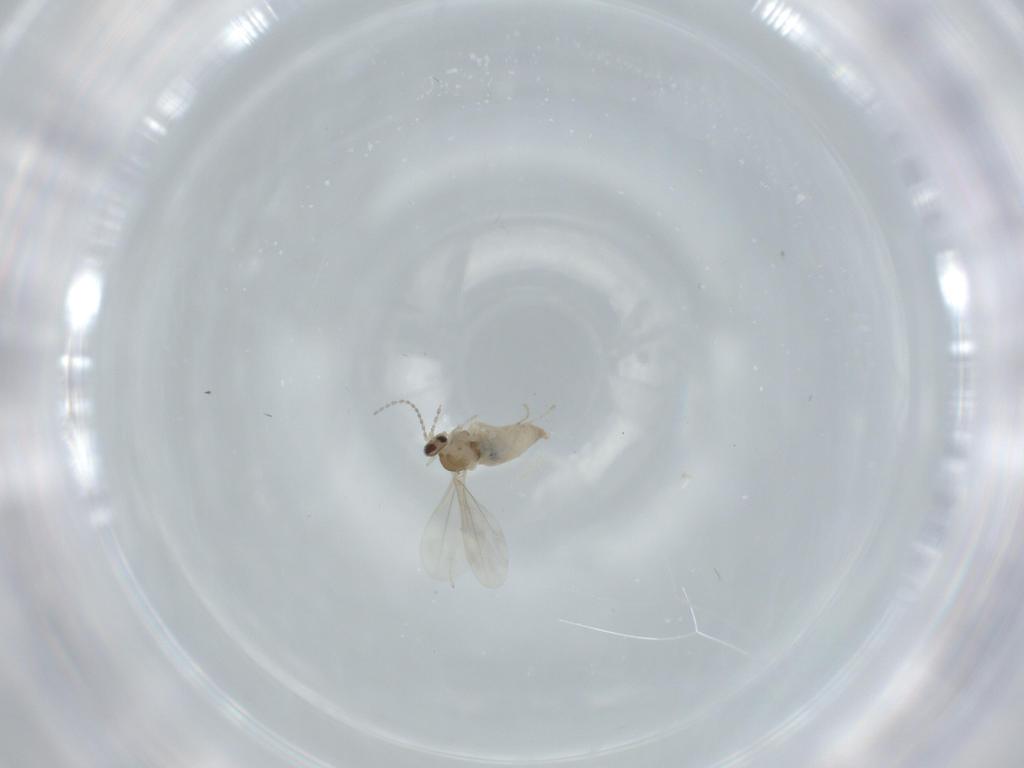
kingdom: Animalia
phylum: Arthropoda
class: Insecta
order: Diptera
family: Cecidomyiidae
